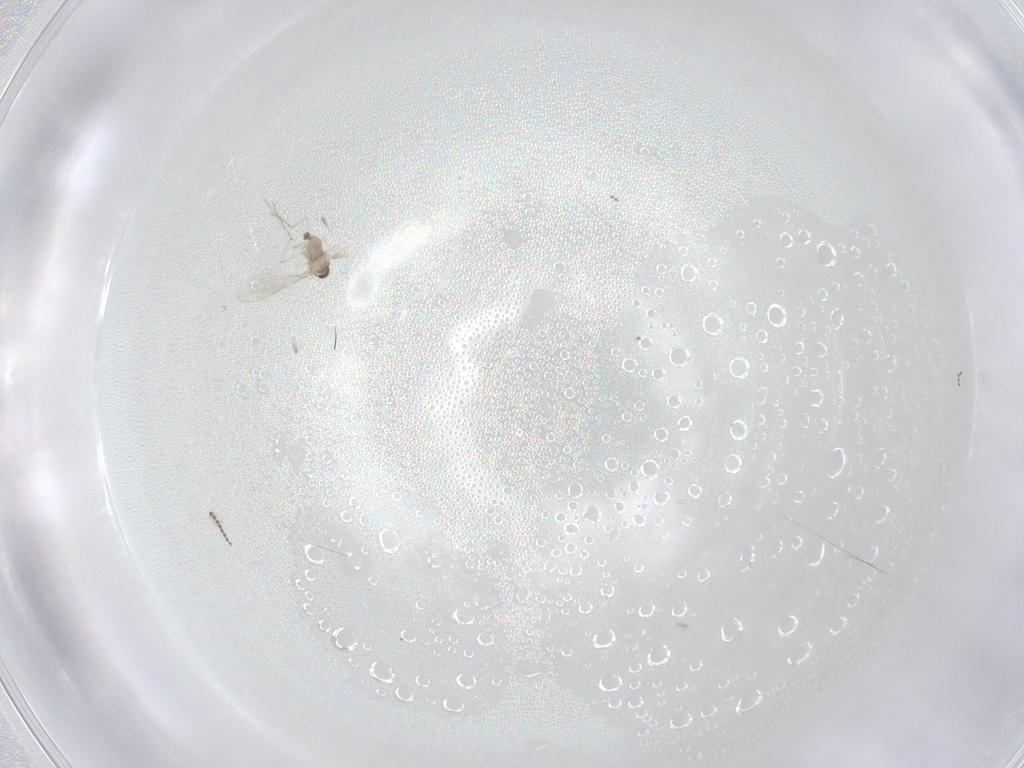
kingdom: Animalia
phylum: Arthropoda
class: Insecta
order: Diptera
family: Cecidomyiidae
